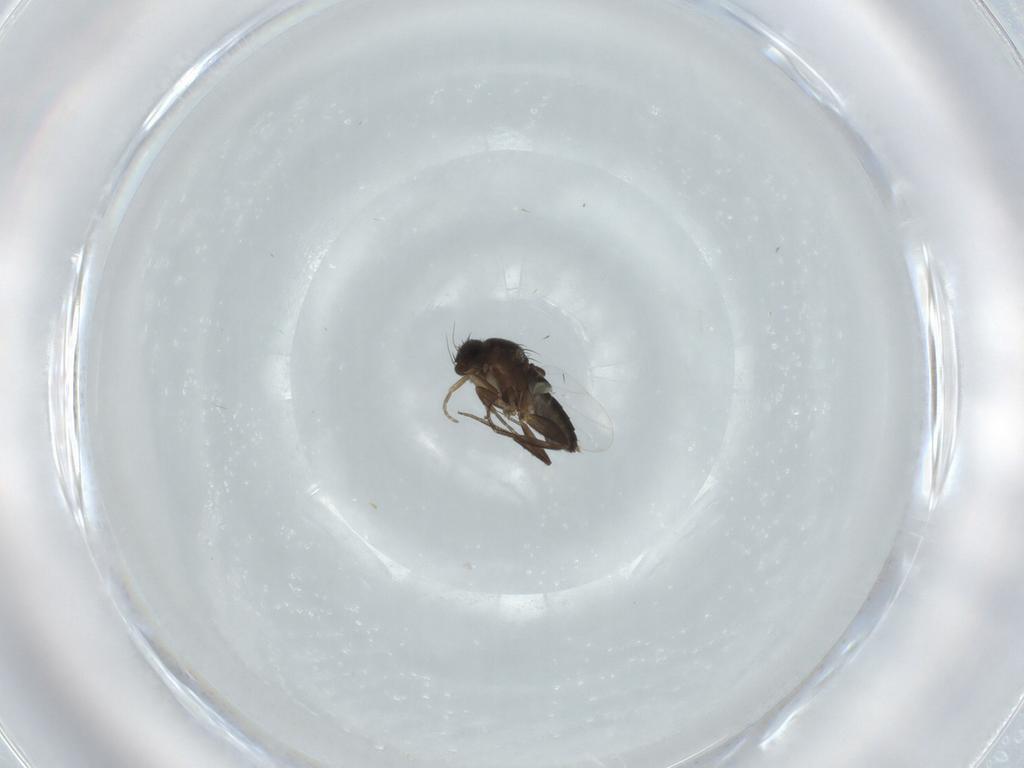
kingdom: Animalia
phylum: Arthropoda
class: Insecta
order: Diptera
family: Phoridae
